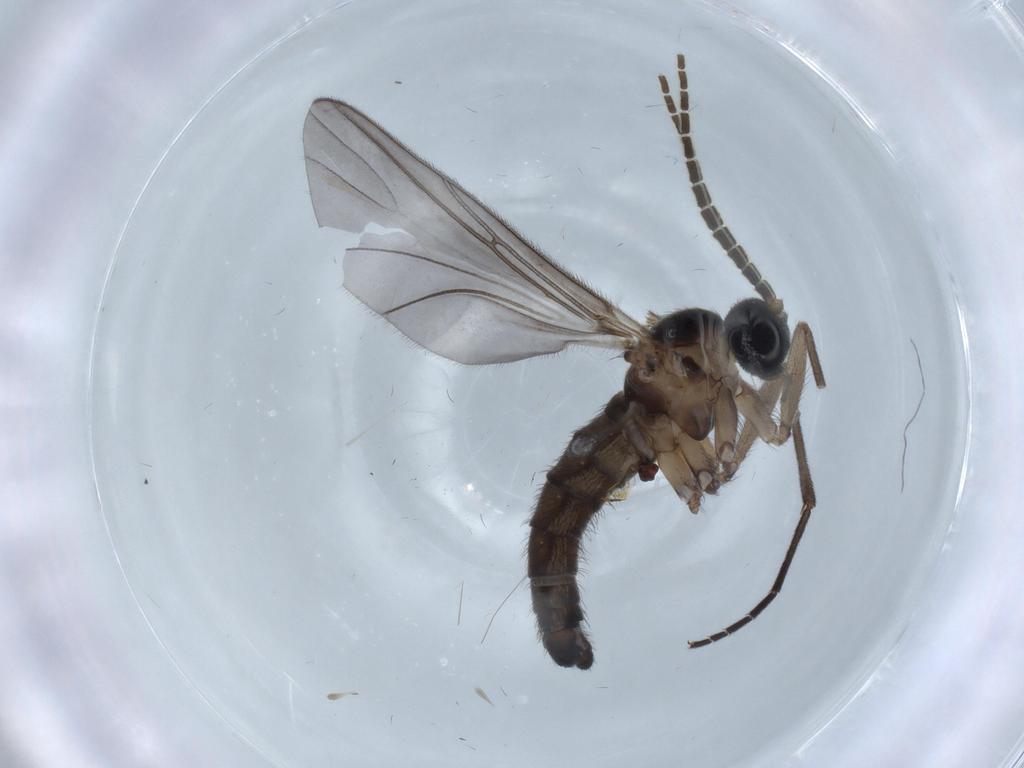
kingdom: Animalia
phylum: Arthropoda
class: Insecta
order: Diptera
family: Sciaridae
